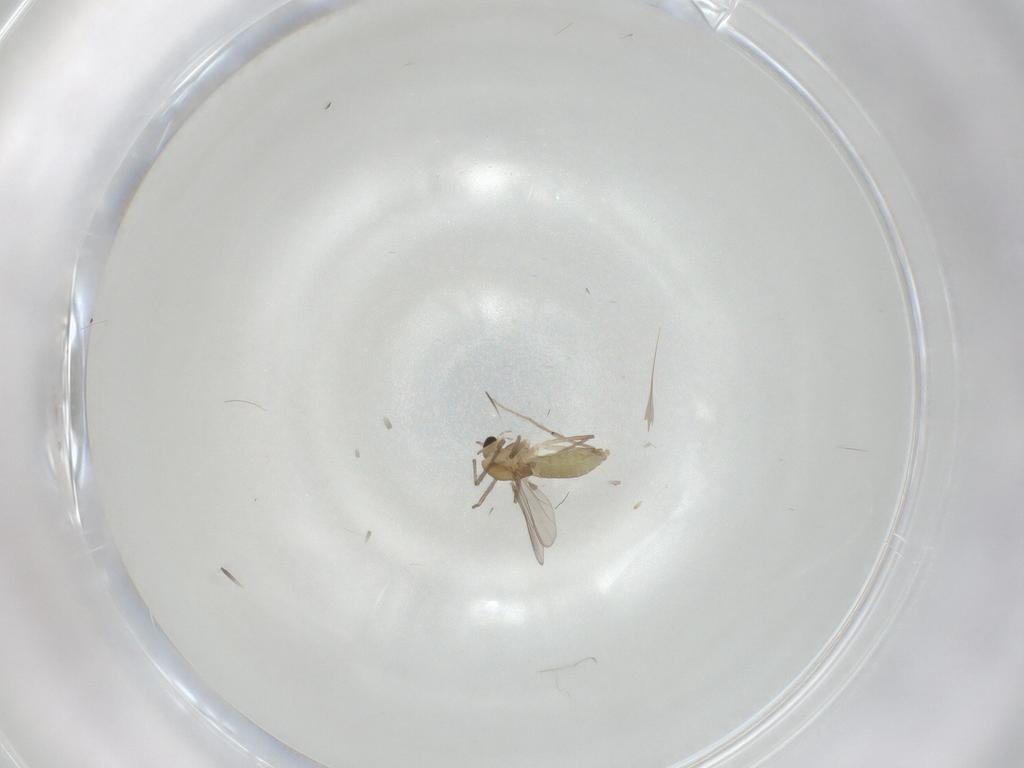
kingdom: Animalia
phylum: Arthropoda
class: Insecta
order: Diptera
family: Chironomidae
